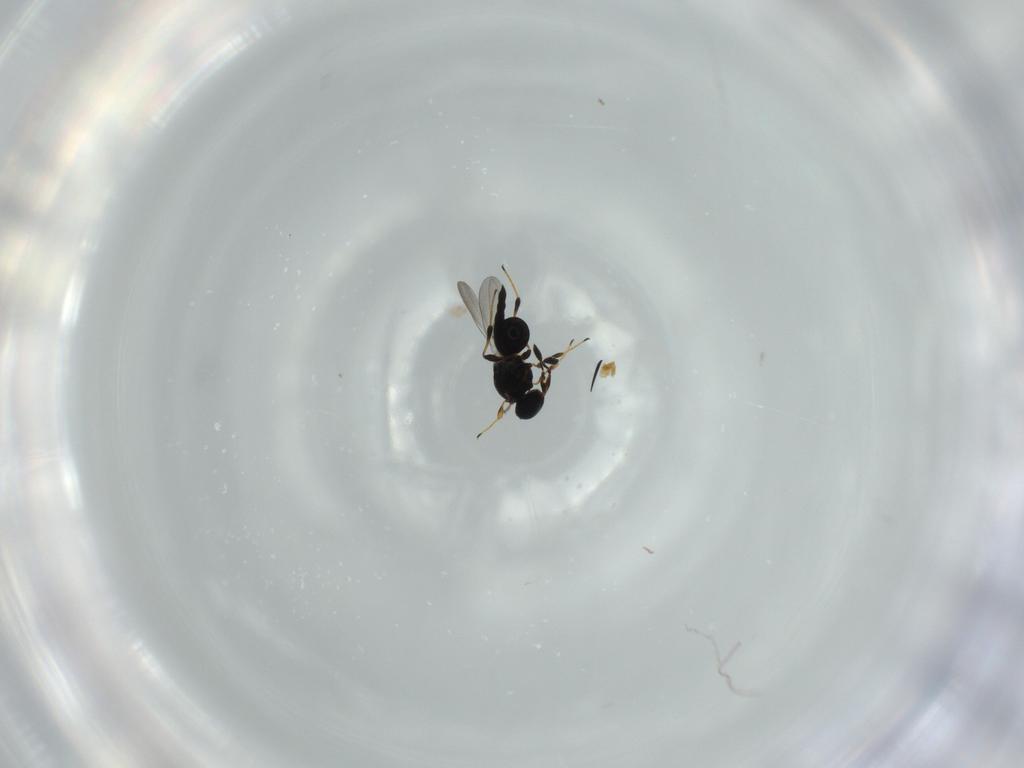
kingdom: Animalia
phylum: Arthropoda
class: Insecta
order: Hymenoptera
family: Platygastridae
